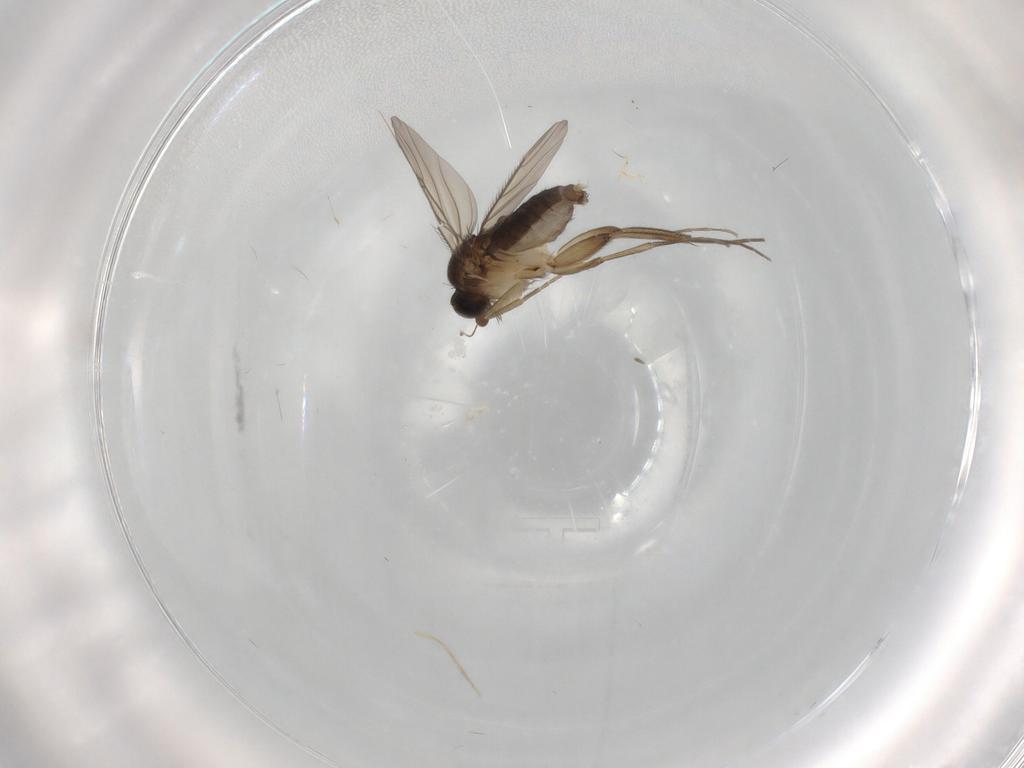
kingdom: Animalia
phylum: Arthropoda
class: Insecta
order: Diptera
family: Phoridae
